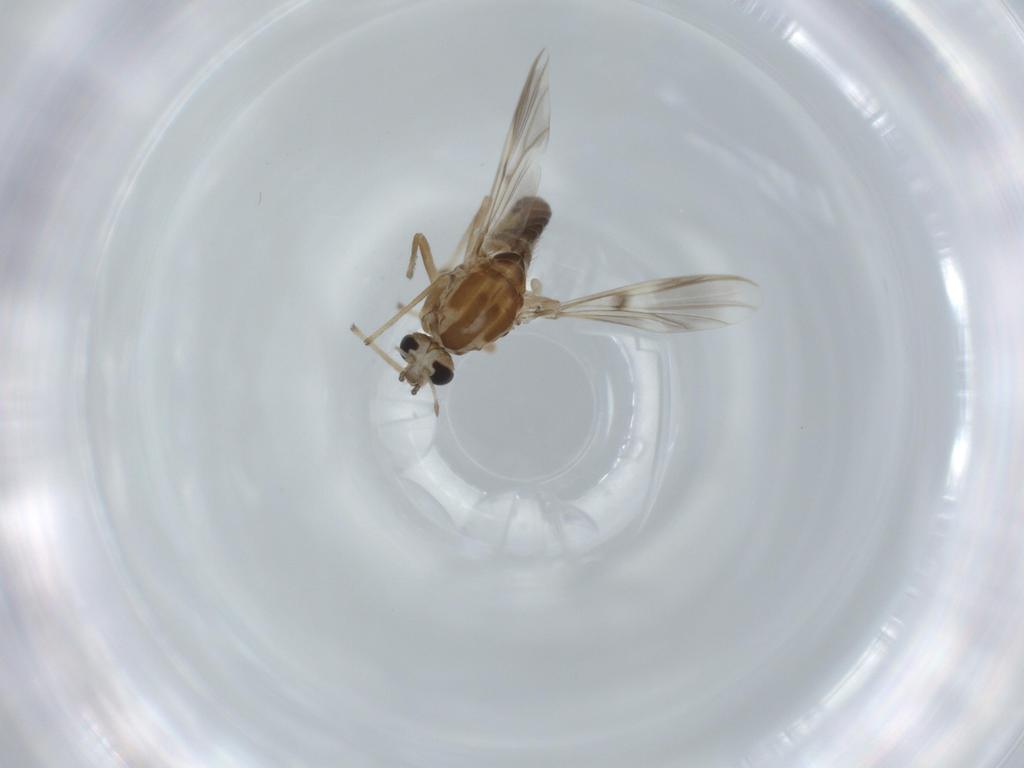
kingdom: Animalia
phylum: Arthropoda
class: Insecta
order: Diptera
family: Chironomidae
